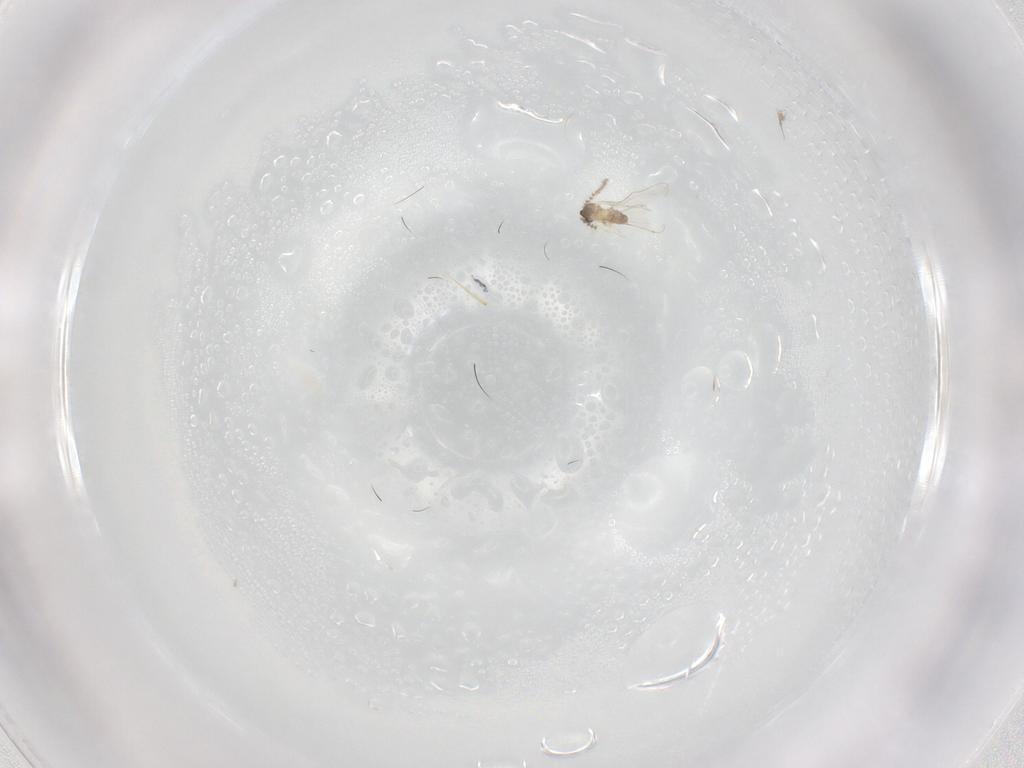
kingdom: Animalia
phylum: Arthropoda
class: Insecta
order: Diptera
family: Cecidomyiidae
